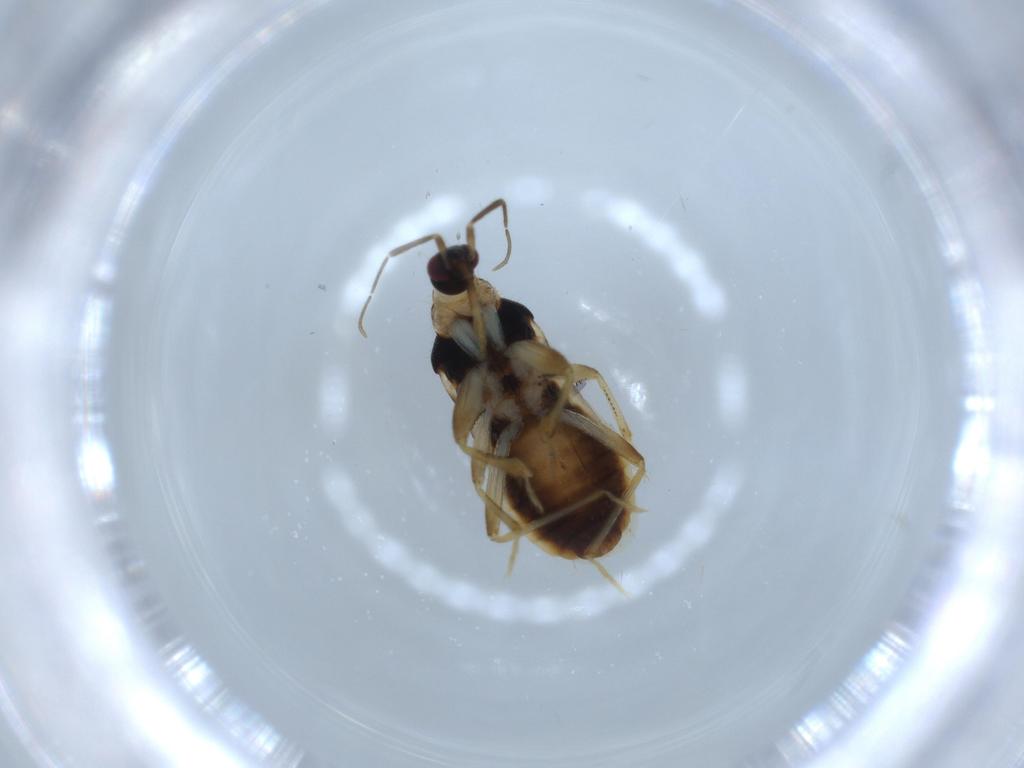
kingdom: Animalia
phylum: Arthropoda
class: Insecta
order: Hemiptera
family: Nabidae
